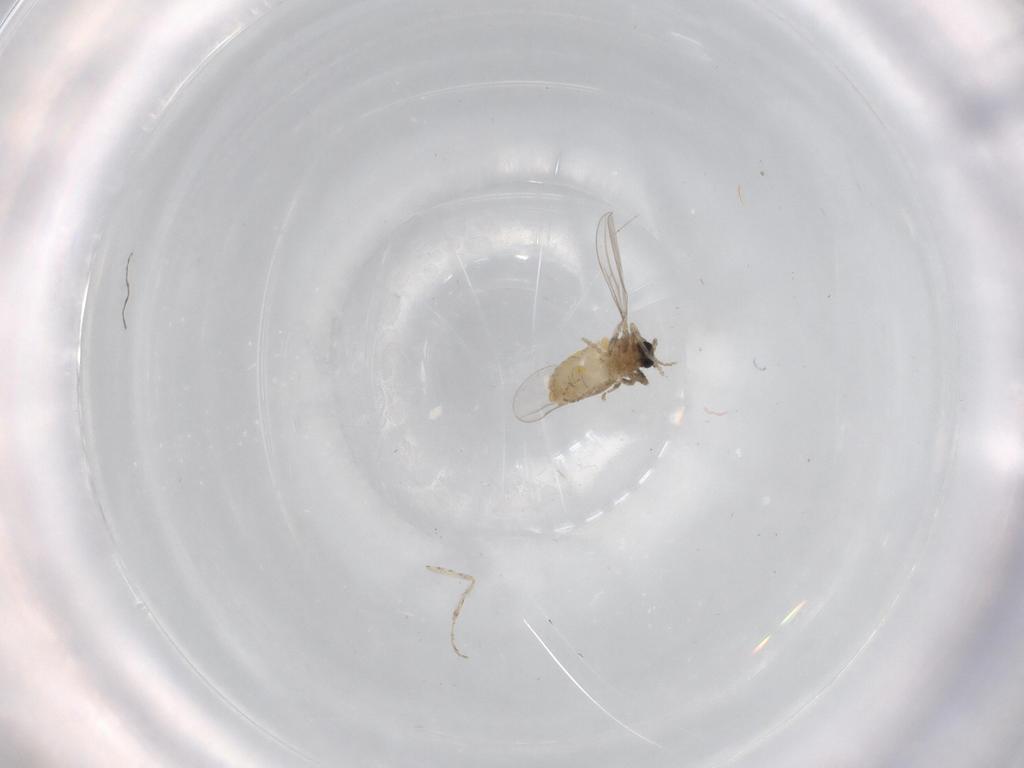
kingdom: Animalia
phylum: Arthropoda
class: Insecta
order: Diptera
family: Cecidomyiidae
